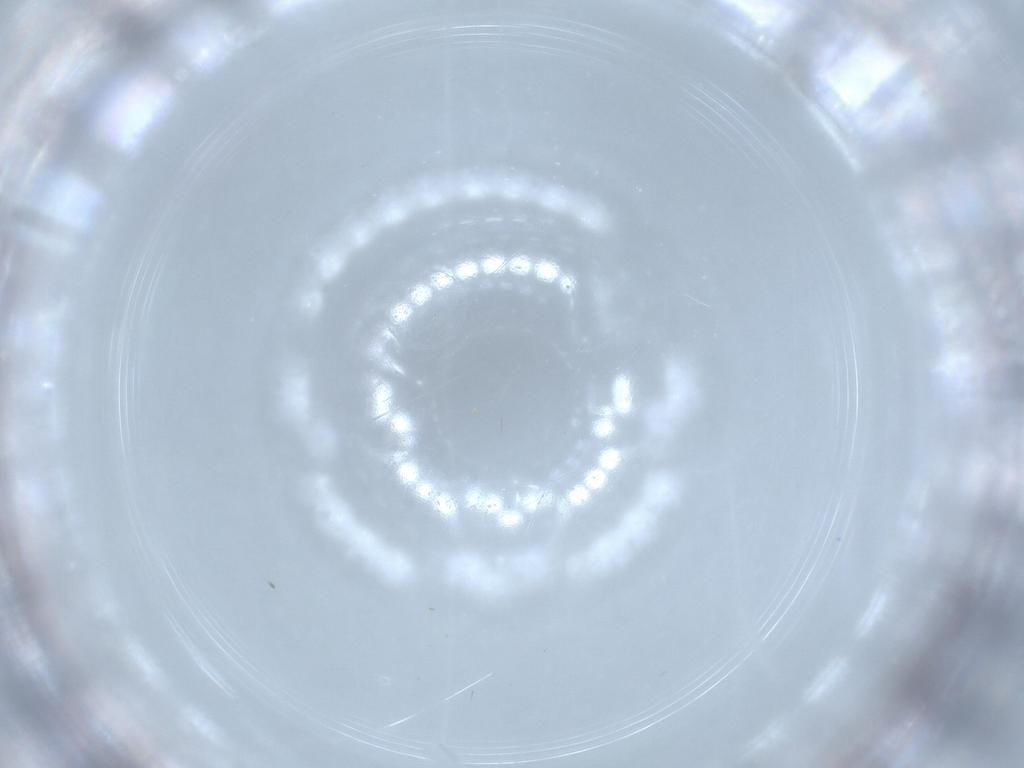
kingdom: Animalia
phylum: Arthropoda
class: Insecta
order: Hymenoptera
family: Mymaridae
